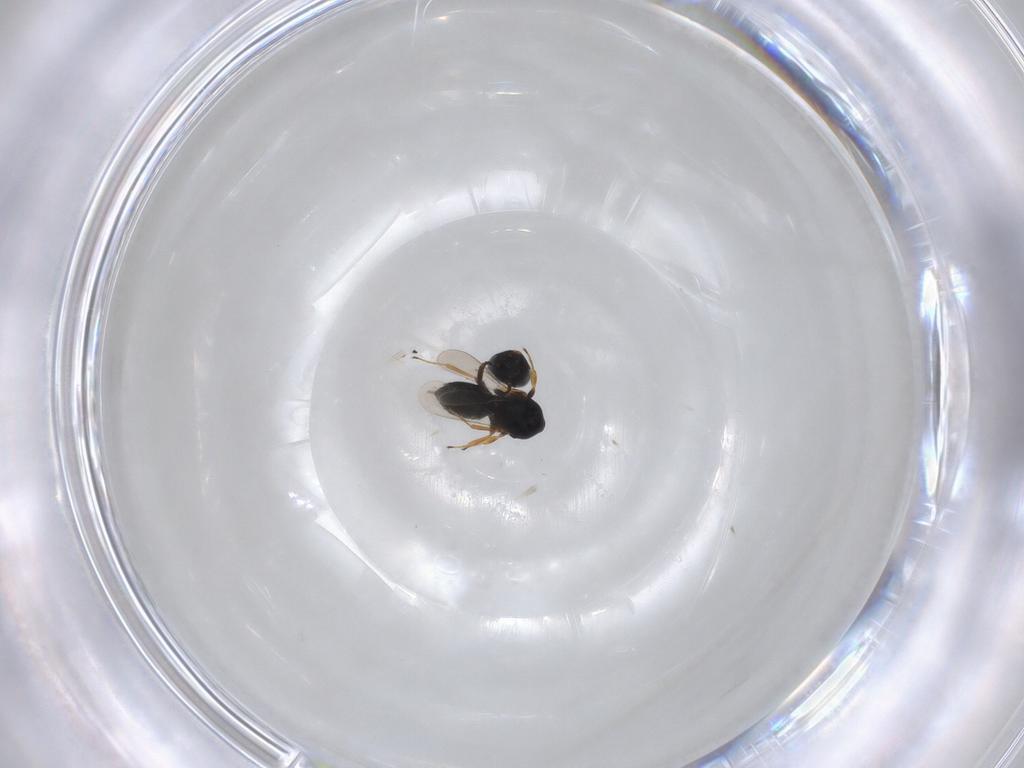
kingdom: Animalia
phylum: Arthropoda
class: Insecta
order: Hymenoptera
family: Scelionidae
